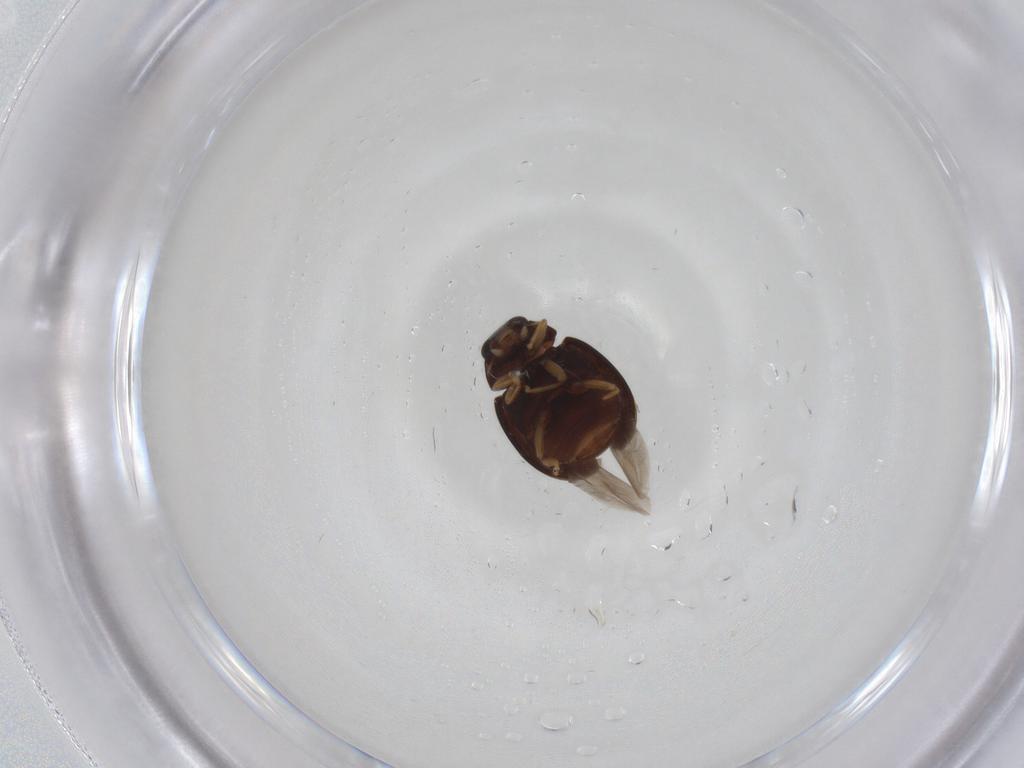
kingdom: Animalia
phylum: Arthropoda
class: Insecta
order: Coleoptera
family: Coccinellidae
